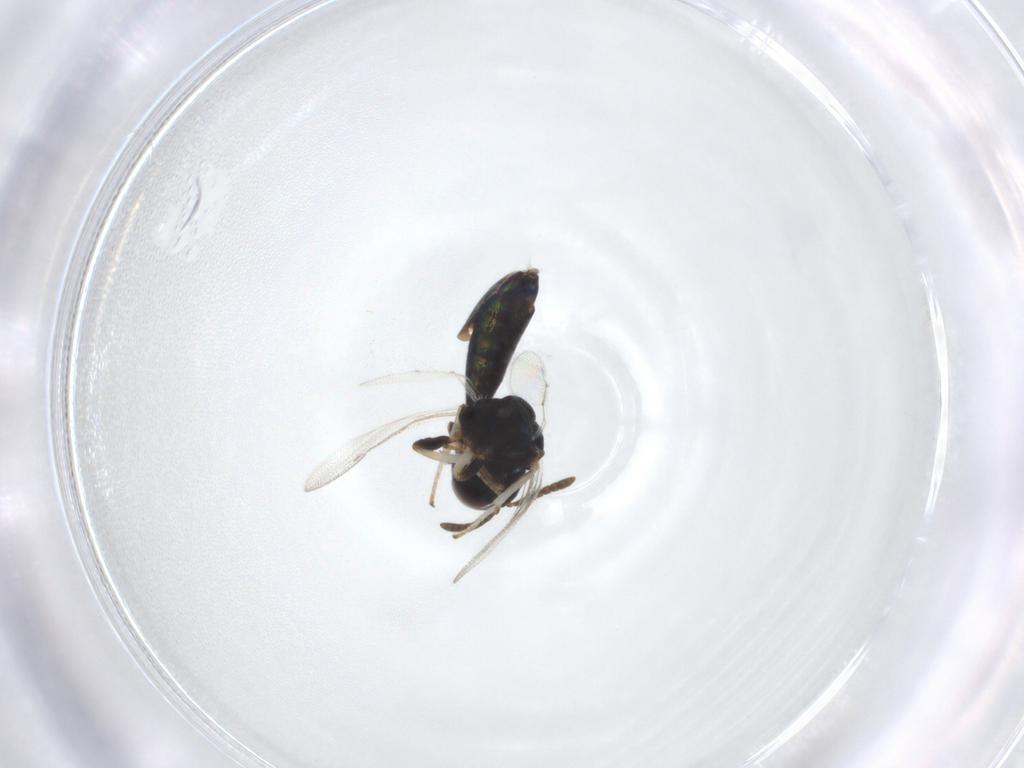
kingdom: Animalia
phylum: Arthropoda
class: Insecta
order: Hymenoptera
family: Pteromalidae
